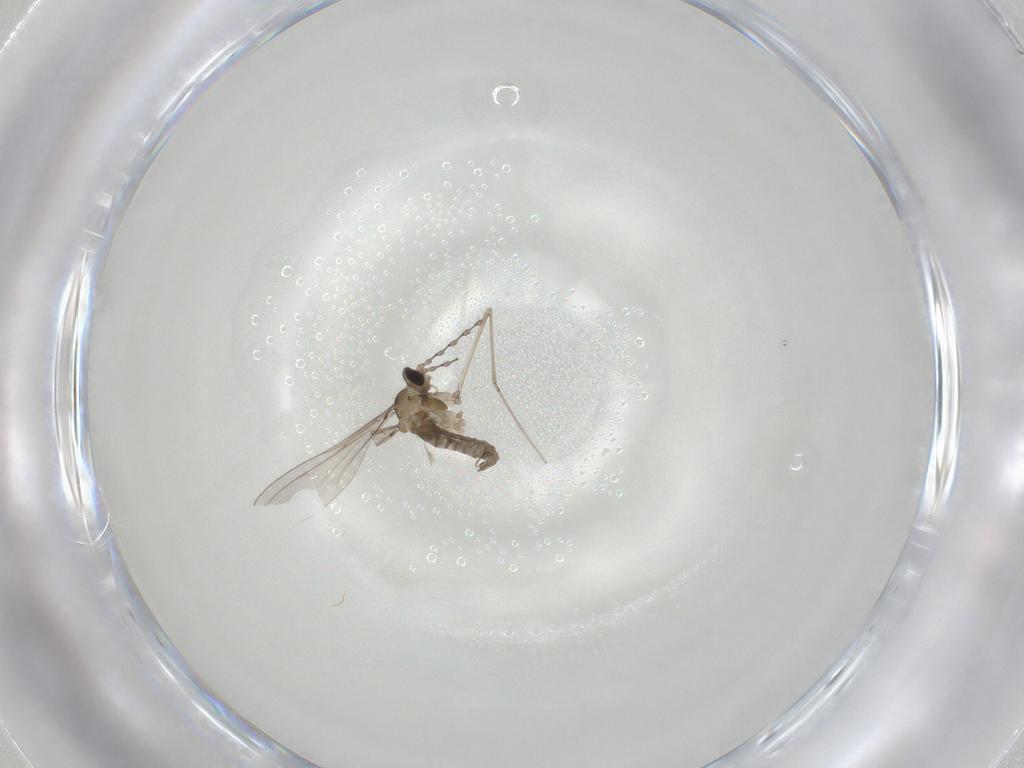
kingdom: Animalia
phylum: Arthropoda
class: Insecta
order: Diptera
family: Cecidomyiidae
